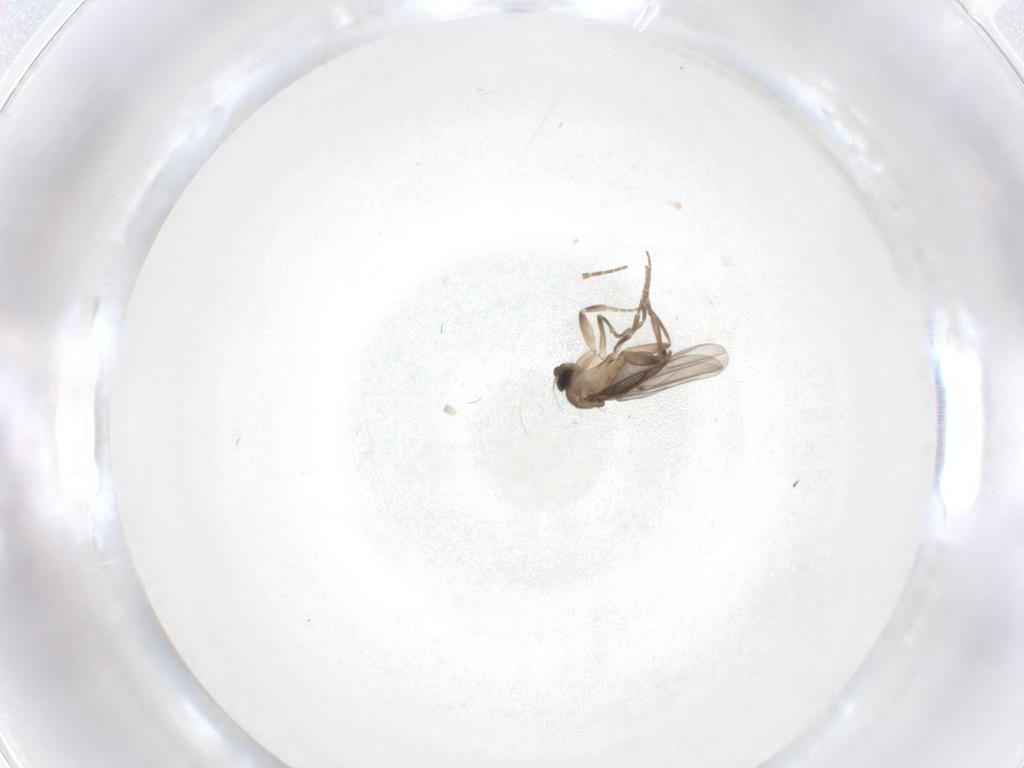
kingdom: Animalia
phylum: Arthropoda
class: Insecta
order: Diptera
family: Phoridae
